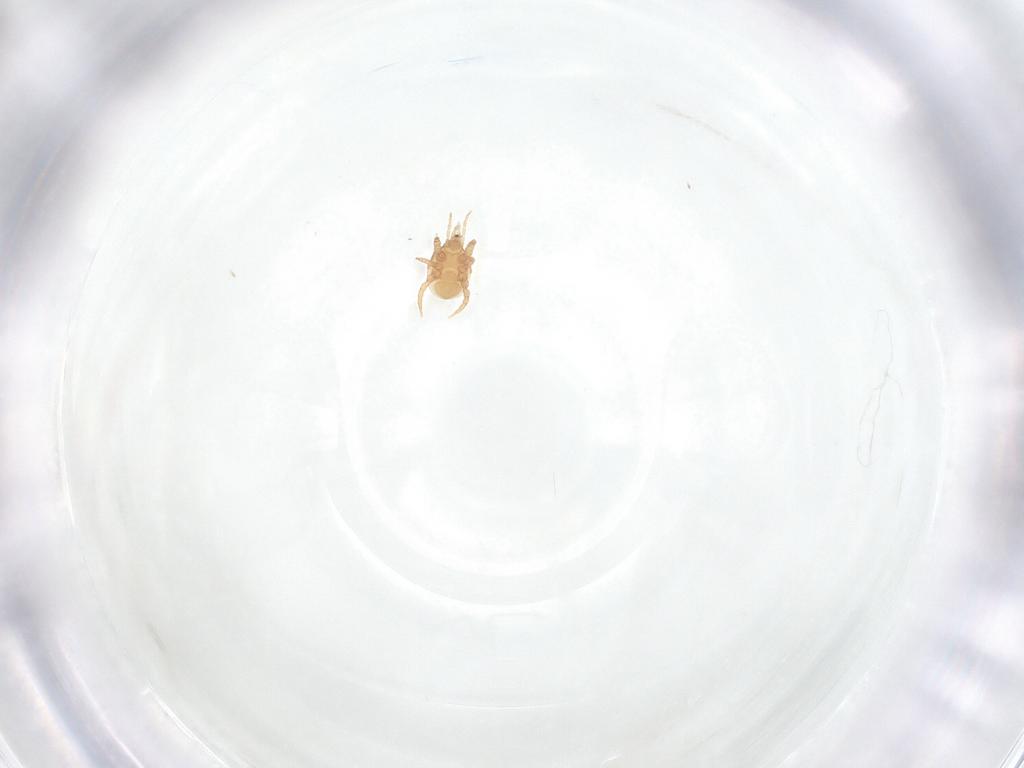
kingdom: Animalia
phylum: Arthropoda
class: Arachnida
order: Mesostigmata
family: Macrochelidae
